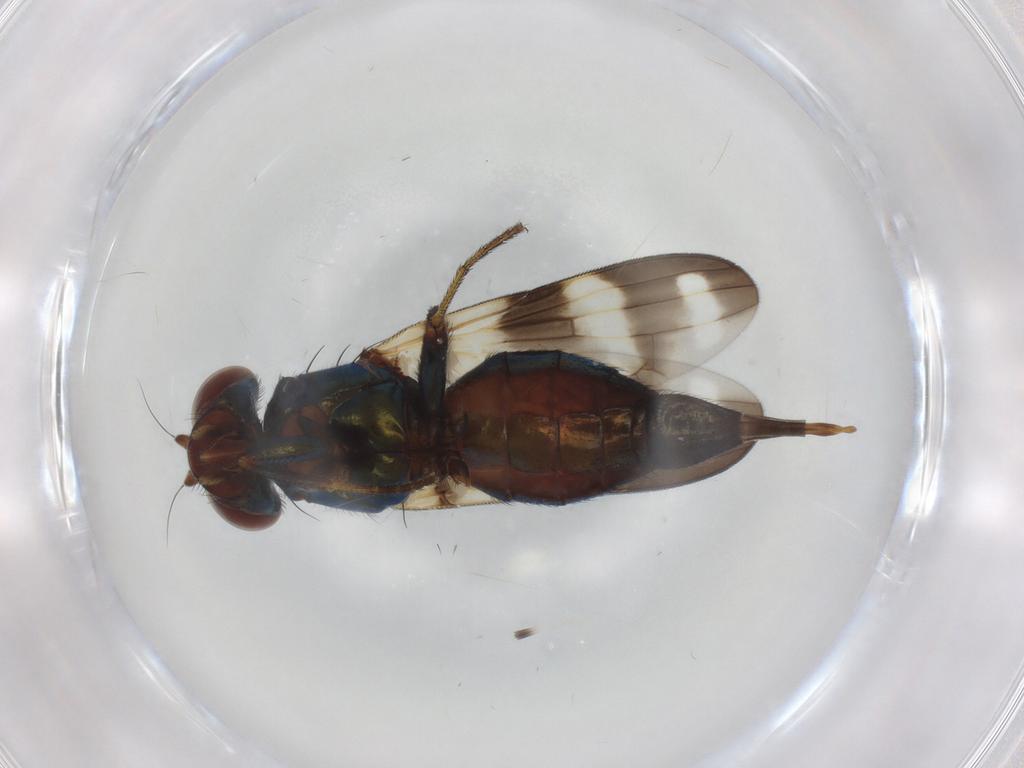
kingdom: Animalia
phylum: Arthropoda
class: Insecta
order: Diptera
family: Ulidiidae
